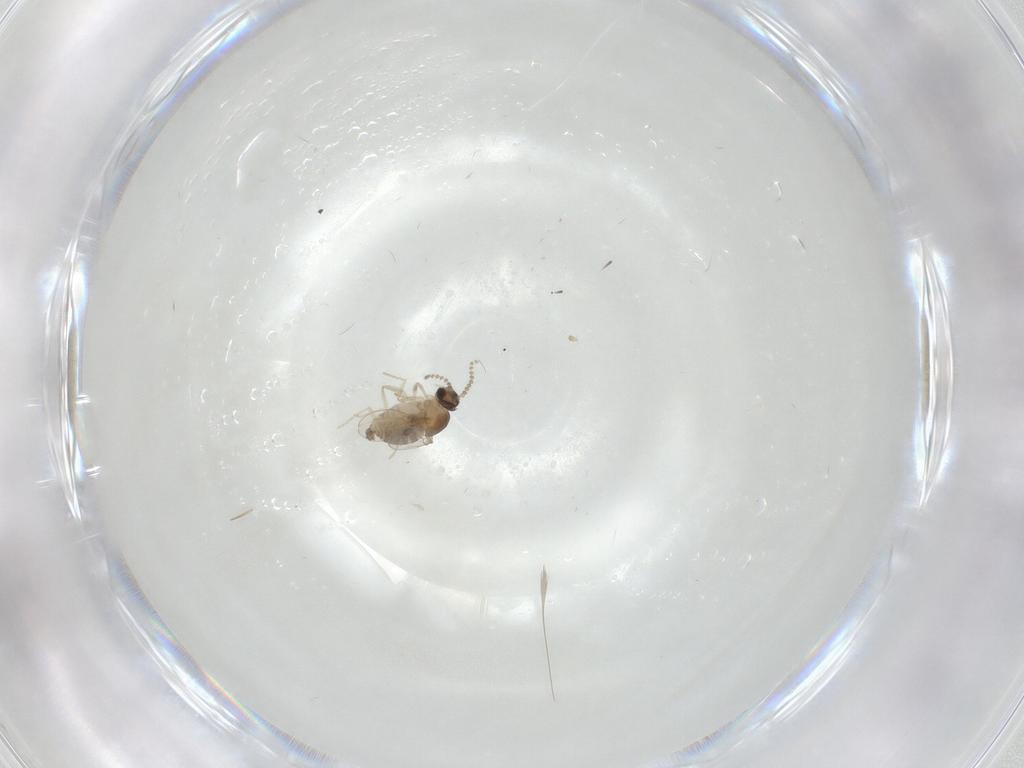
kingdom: Animalia
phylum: Arthropoda
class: Insecta
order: Diptera
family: Cecidomyiidae
